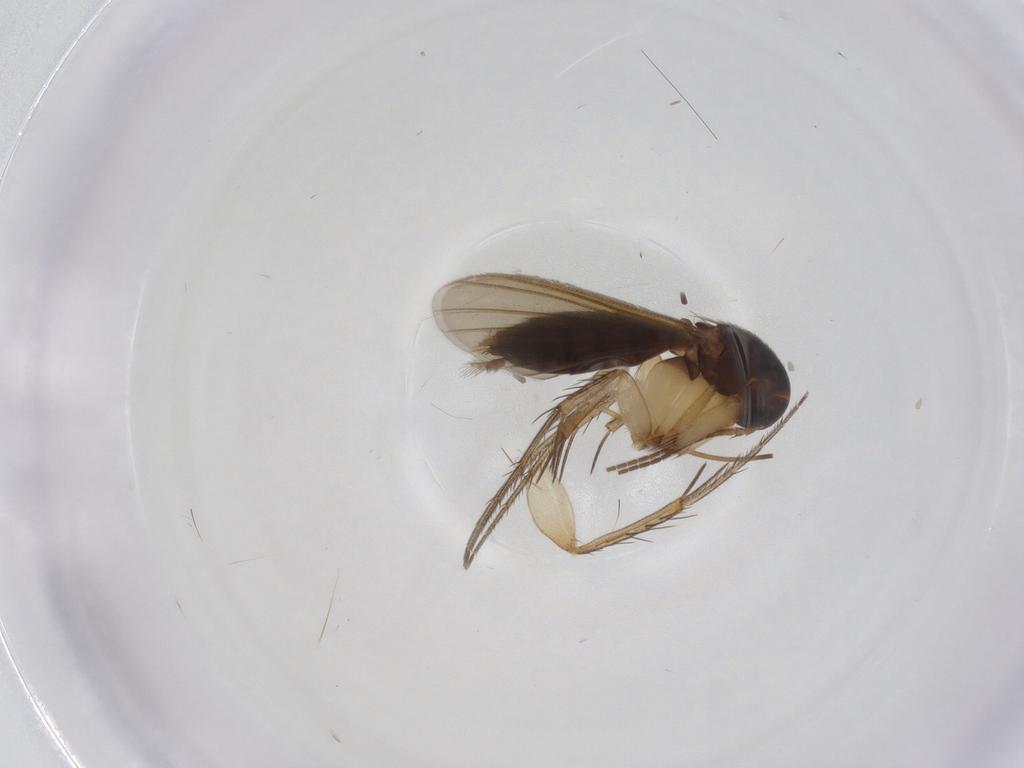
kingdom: Animalia
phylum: Arthropoda
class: Insecta
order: Diptera
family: Mycetophilidae
